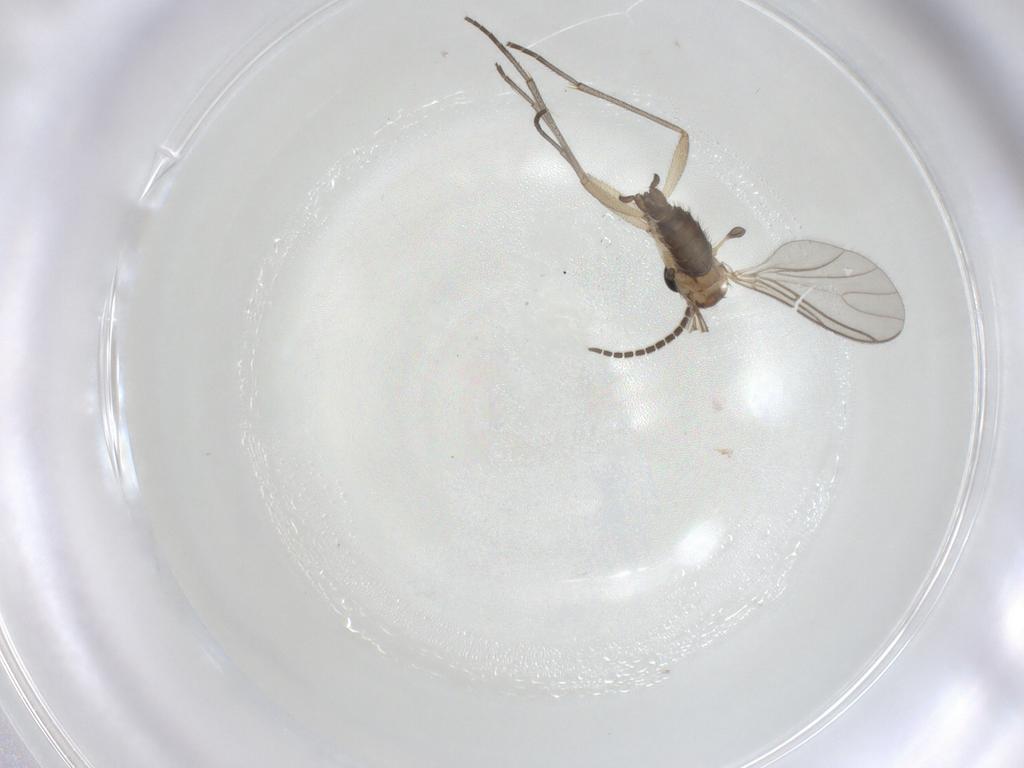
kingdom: Animalia
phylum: Arthropoda
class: Insecta
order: Diptera
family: Sciaridae
